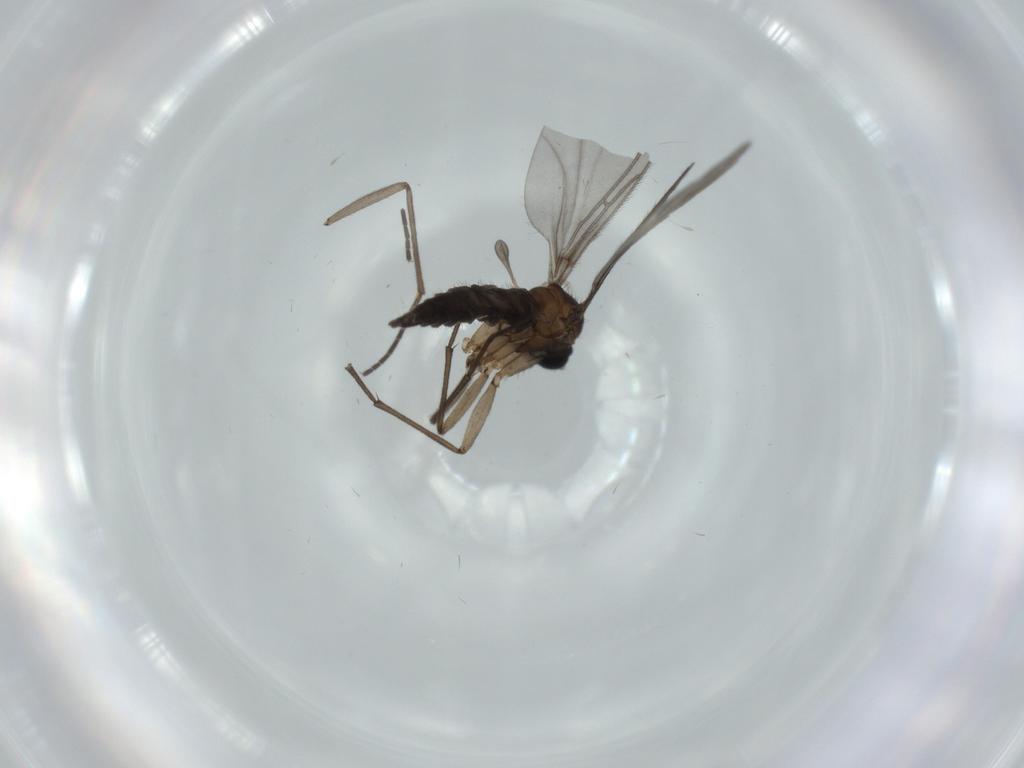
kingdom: Animalia
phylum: Arthropoda
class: Insecta
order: Diptera
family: Sciaridae
